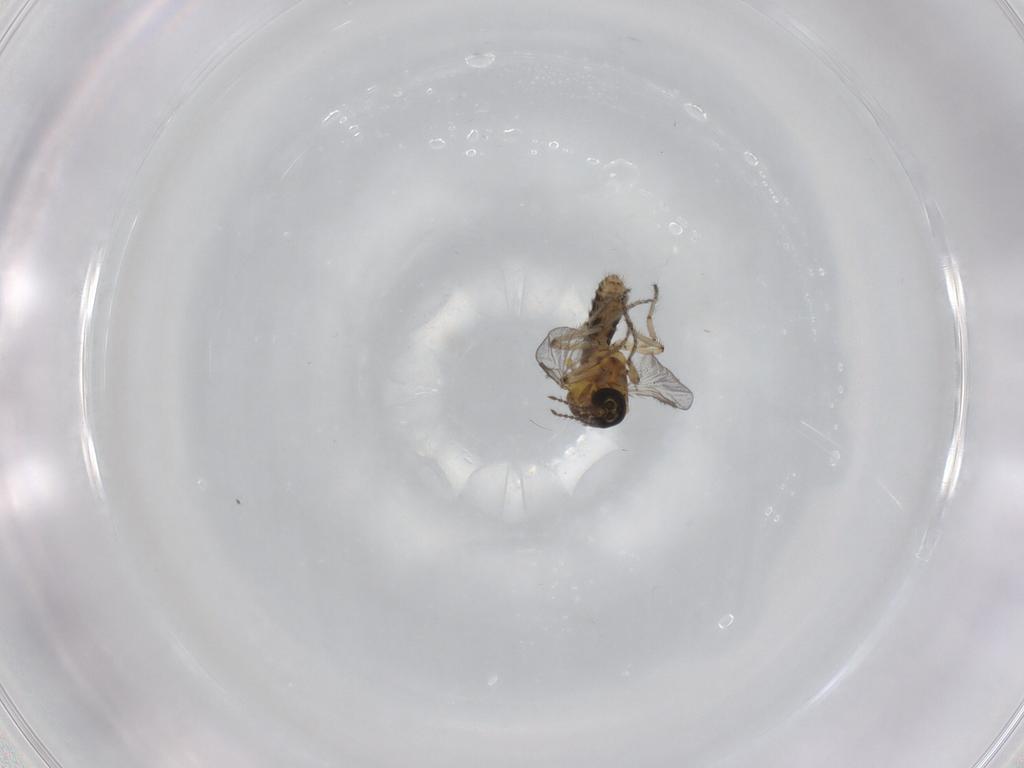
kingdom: Animalia
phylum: Arthropoda
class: Insecta
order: Diptera
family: Ceratopogonidae
